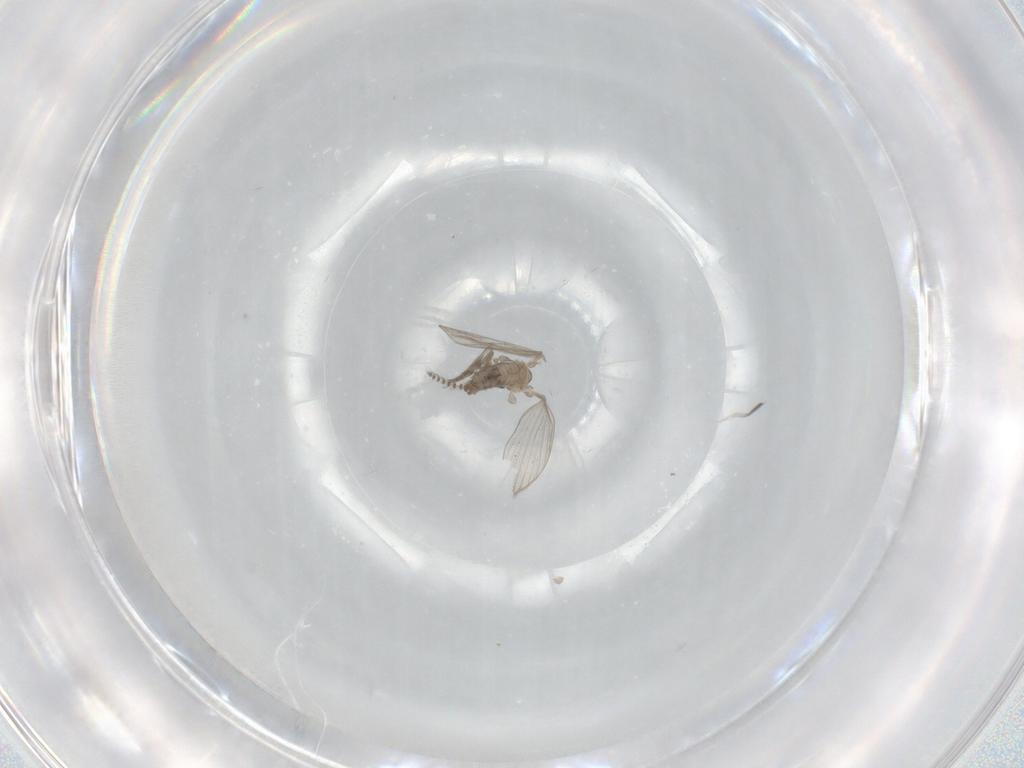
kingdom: Animalia
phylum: Arthropoda
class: Insecta
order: Diptera
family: Psychodidae
